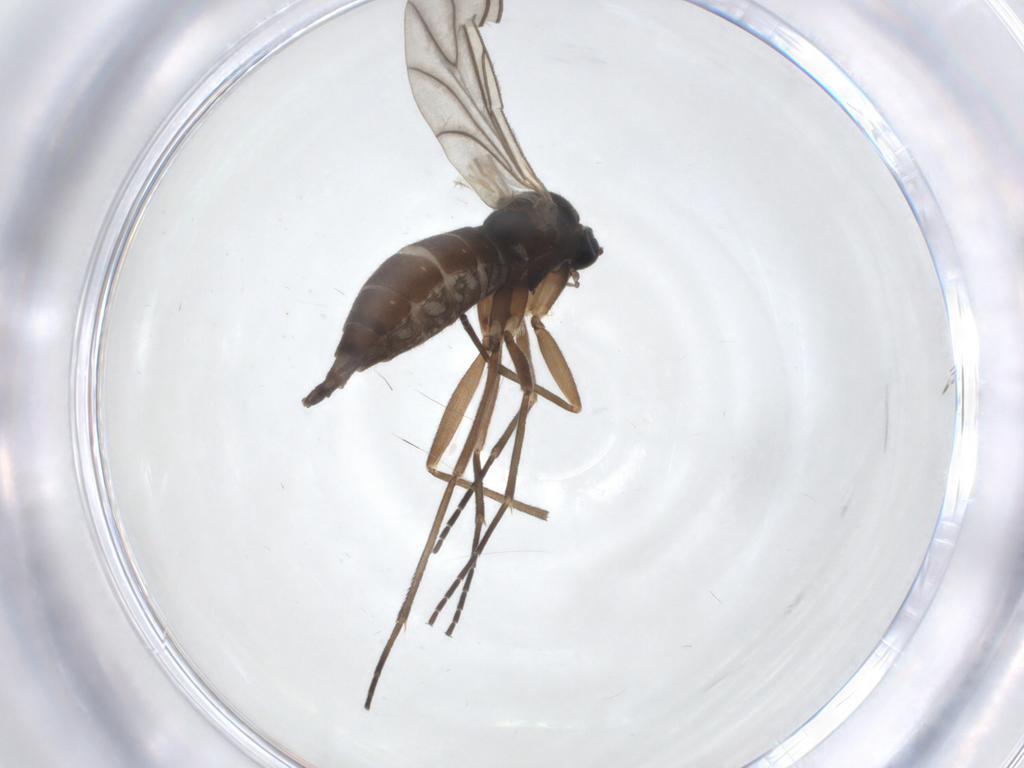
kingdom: Animalia
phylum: Arthropoda
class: Insecta
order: Diptera
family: Sciaridae
